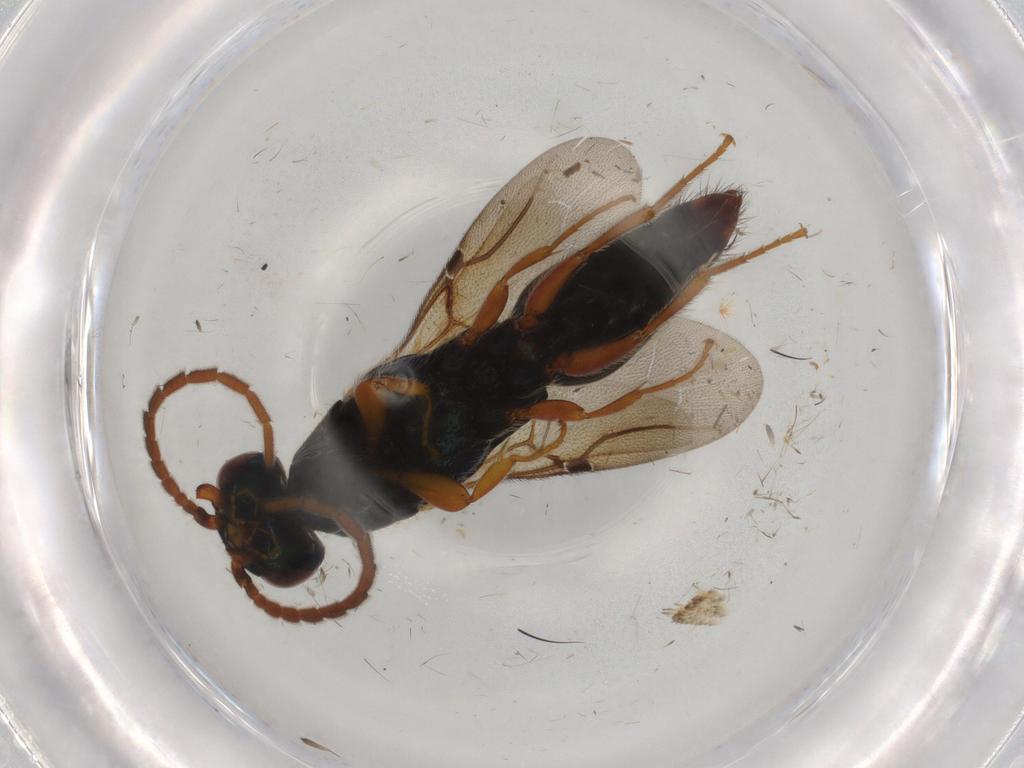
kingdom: Animalia
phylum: Arthropoda
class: Insecta
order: Hymenoptera
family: Bethylidae
